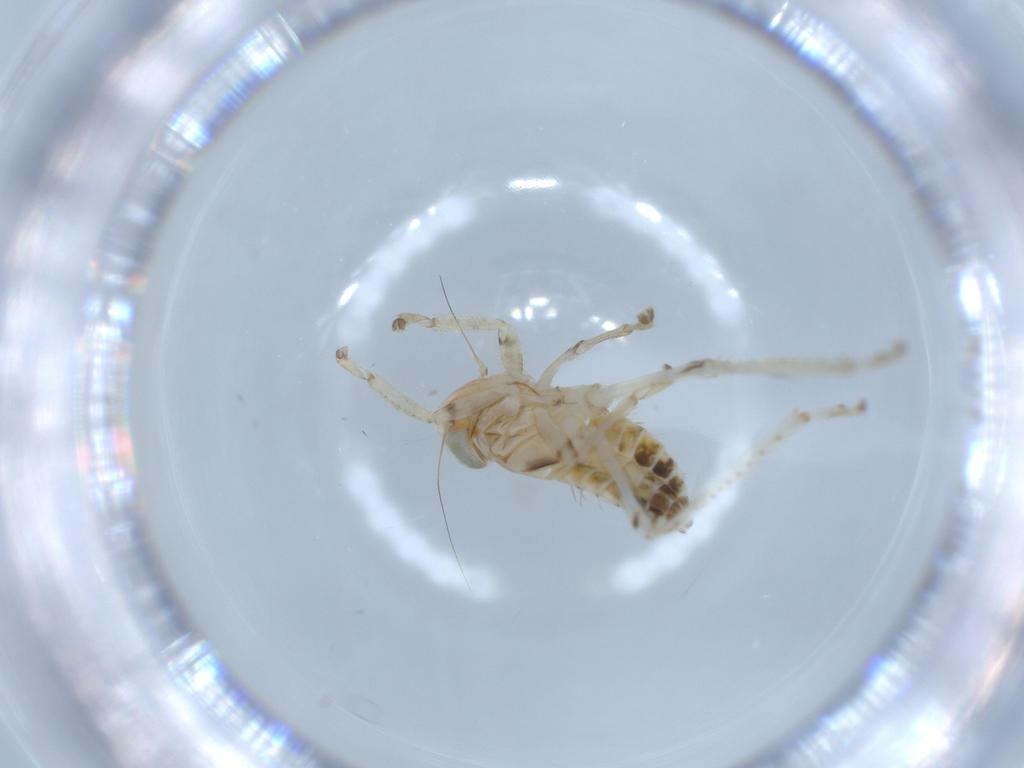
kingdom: Animalia
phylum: Arthropoda
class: Insecta
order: Hemiptera
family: Cicadellidae
